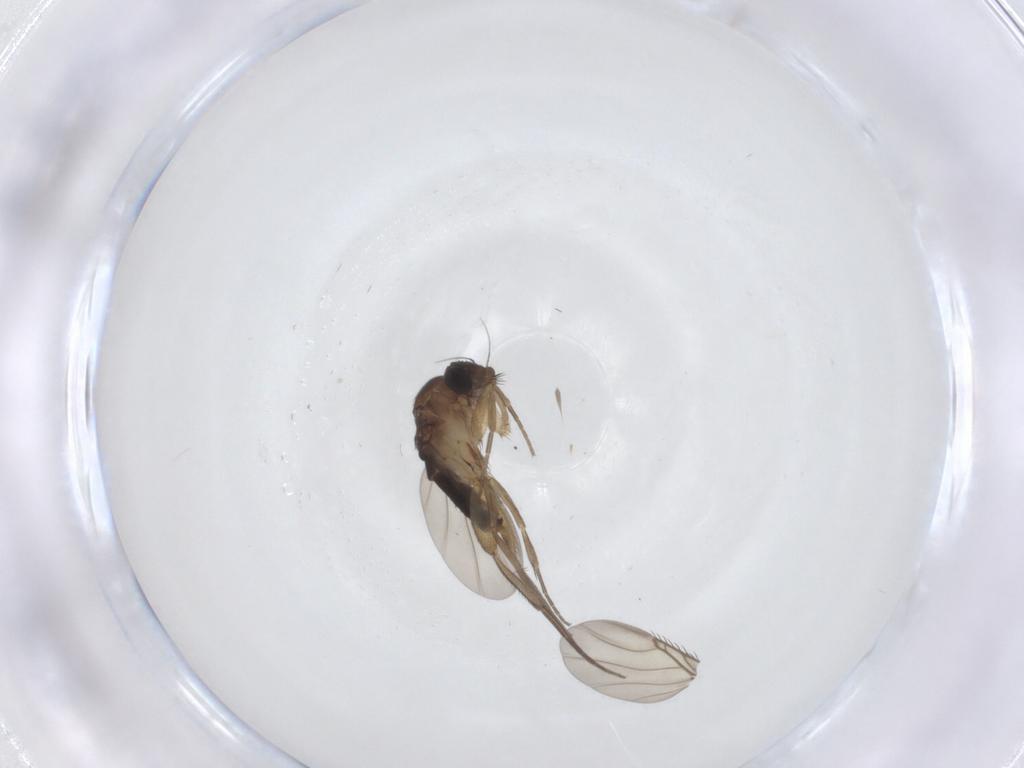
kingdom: Animalia
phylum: Arthropoda
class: Insecta
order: Diptera
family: Phoridae
